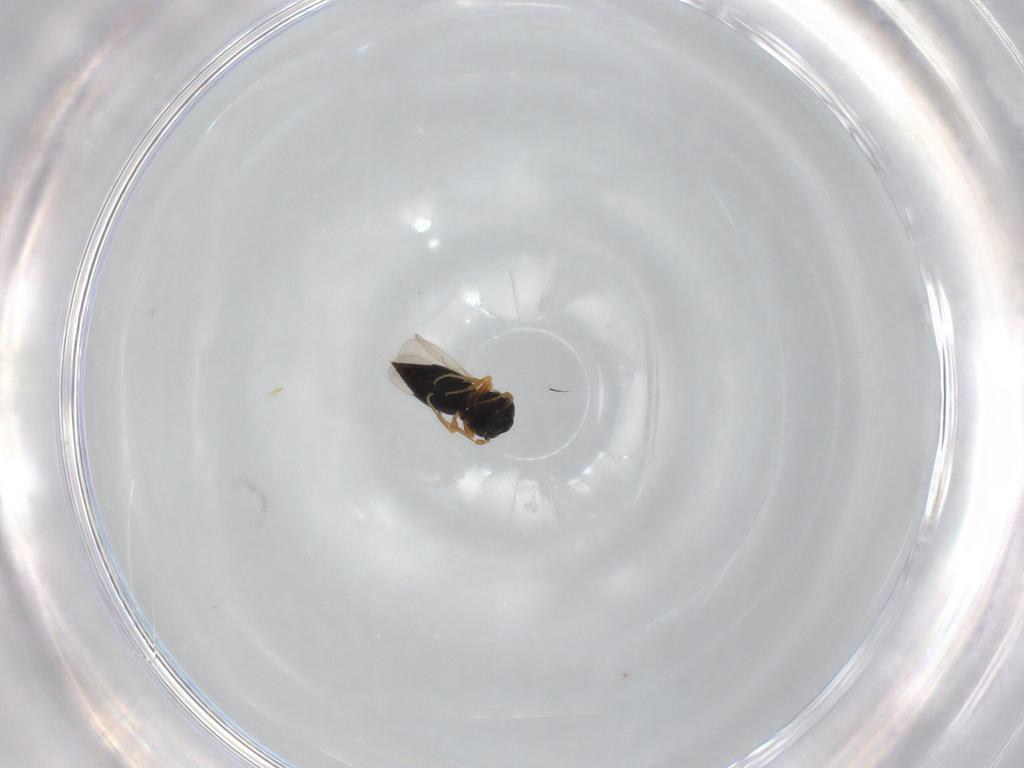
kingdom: Animalia
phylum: Arthropoda
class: Insecta
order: Hymenoptera
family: Scelionidae
